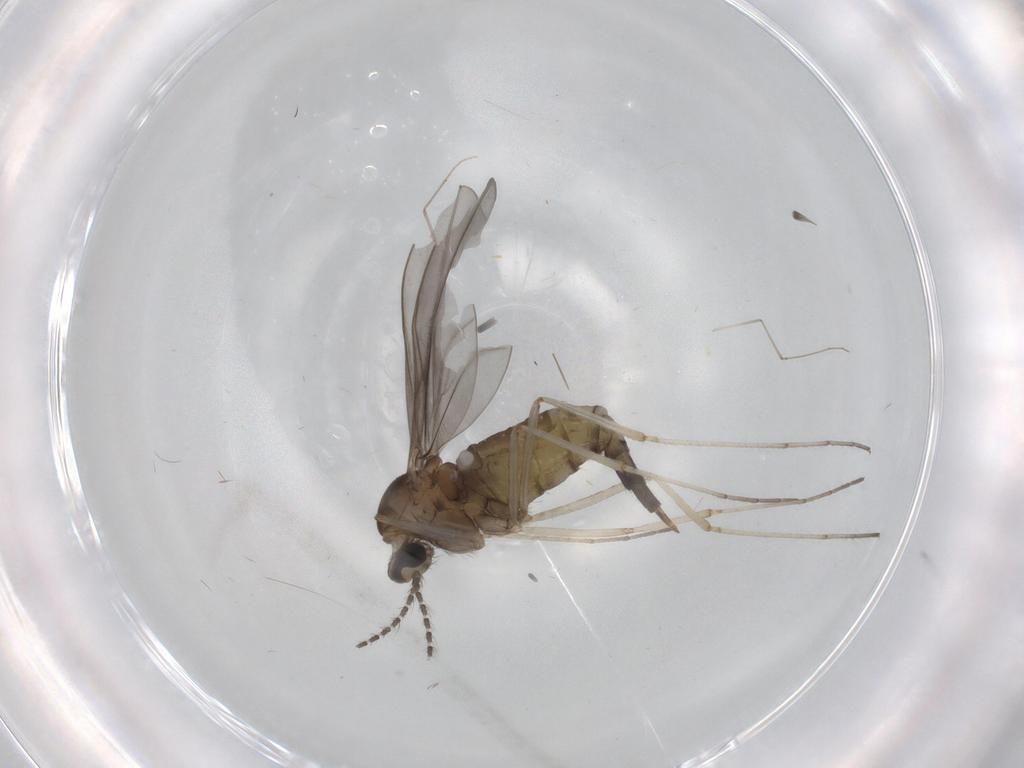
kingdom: Animalia
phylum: Arthropoda
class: Insecta
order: Diptera
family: Cecidomyiidae
